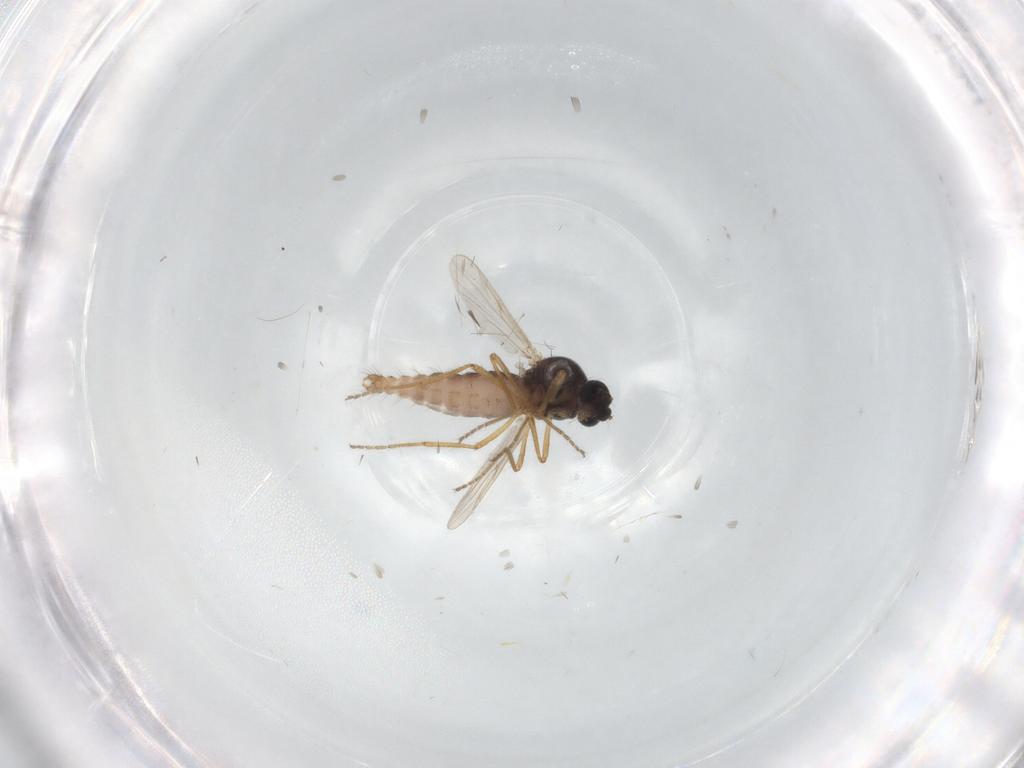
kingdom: Animalia
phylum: Arthropoda
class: Insecta
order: Diptera
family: Ceratopogonidae
